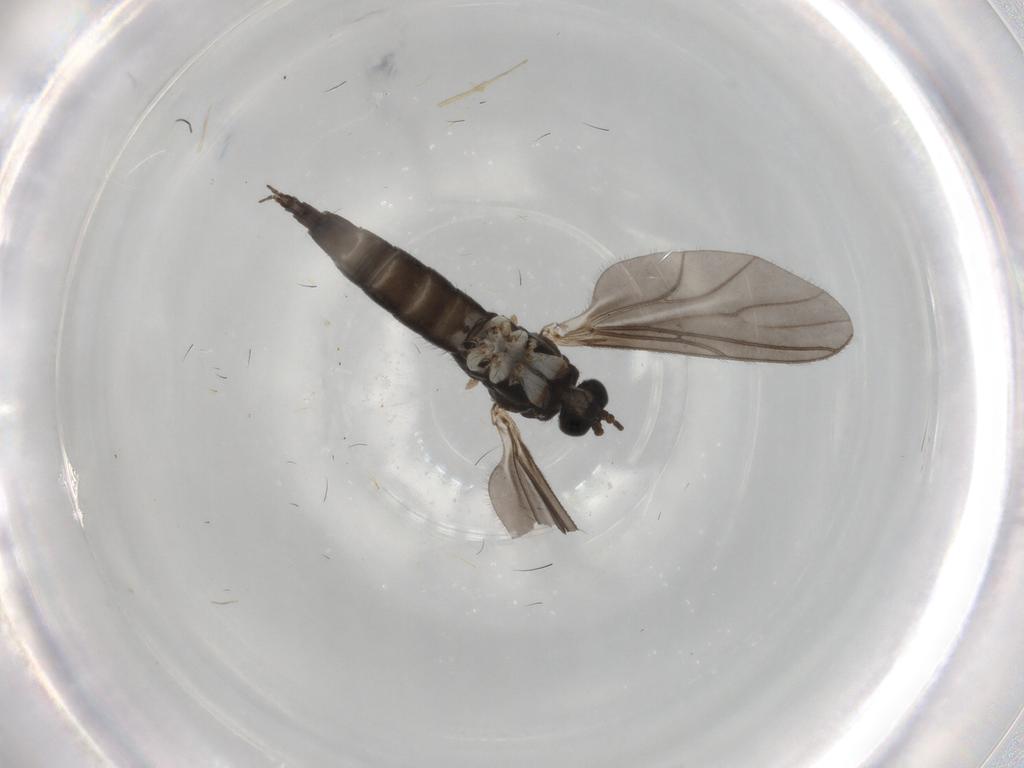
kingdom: Animalia
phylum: Arthropoda
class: Insecta
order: Diptera
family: Sciaridae
